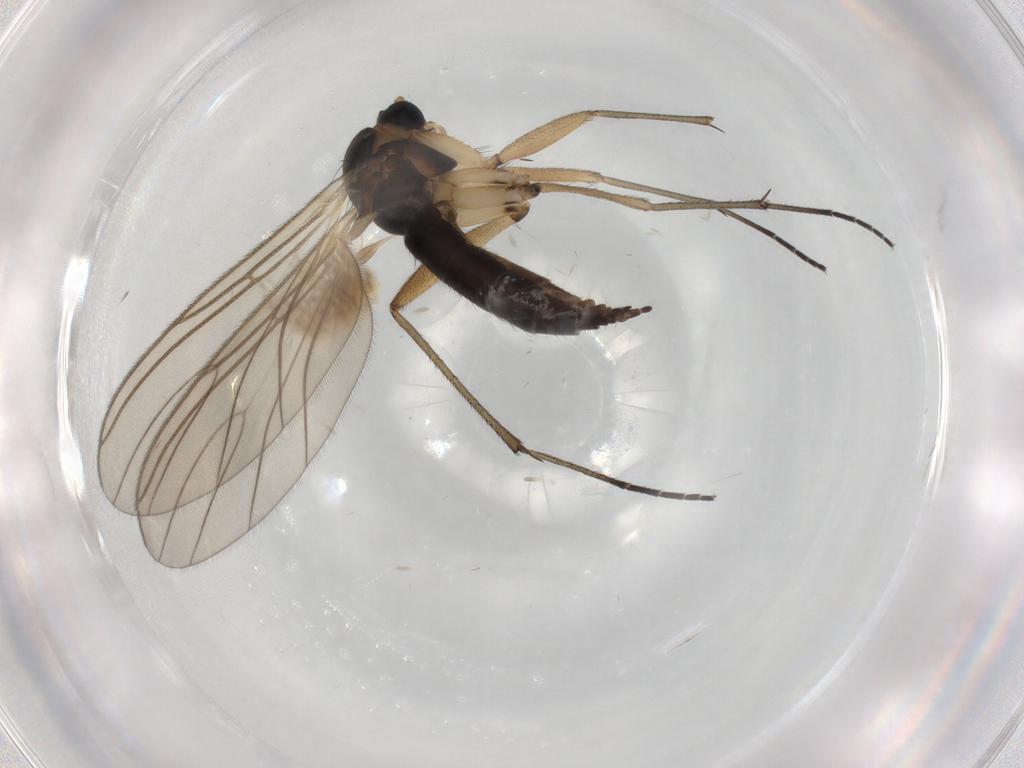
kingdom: Animalia
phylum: Arthropoda
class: Insecta
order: Diptera
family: Sciaridae
